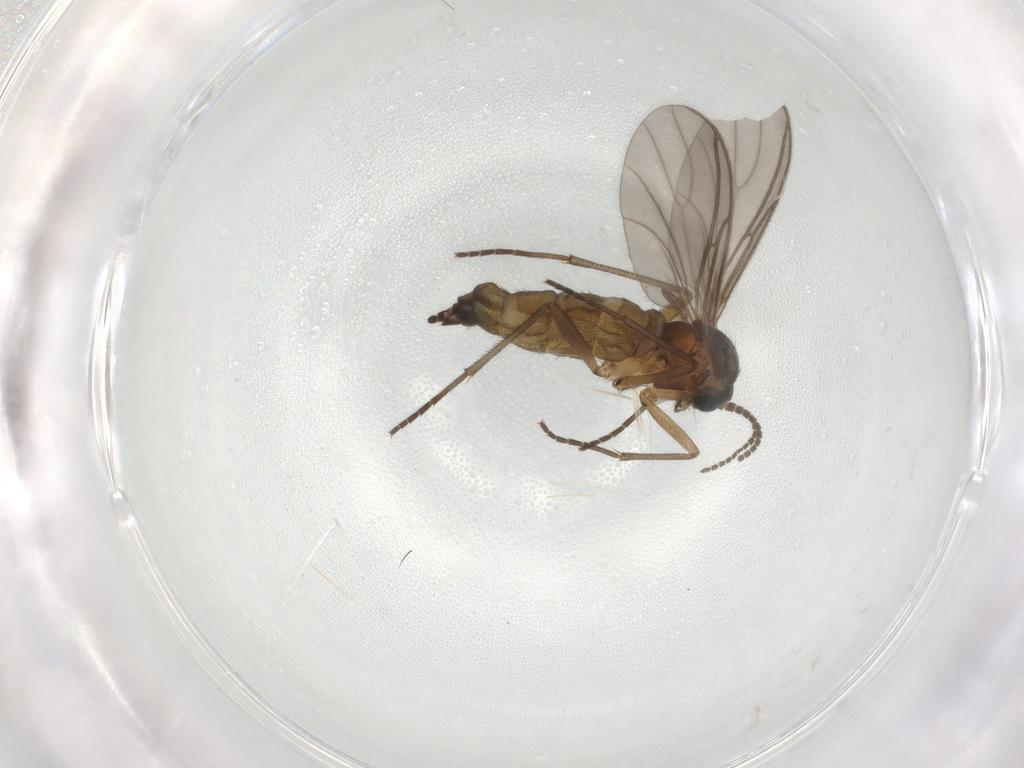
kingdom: Animalia
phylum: Arthropoda
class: Insecta
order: Diptera
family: Sciaridae
